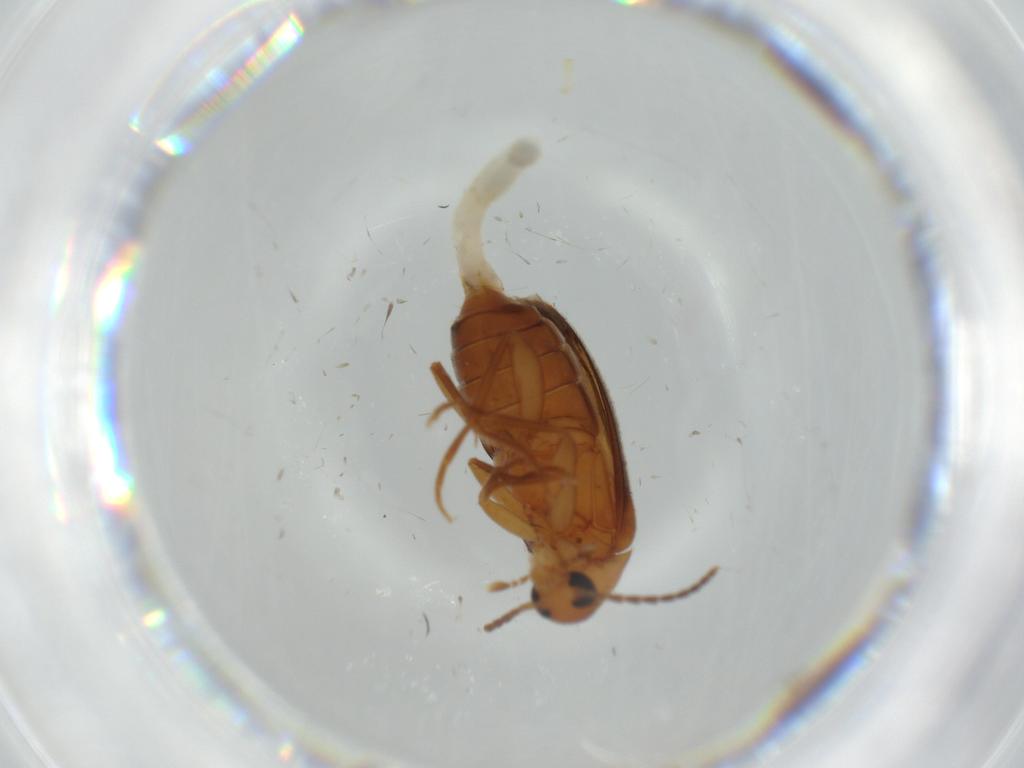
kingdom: Animalia
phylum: Arthropoda
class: Insecta
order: Coleoptera
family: Scraptiidae
